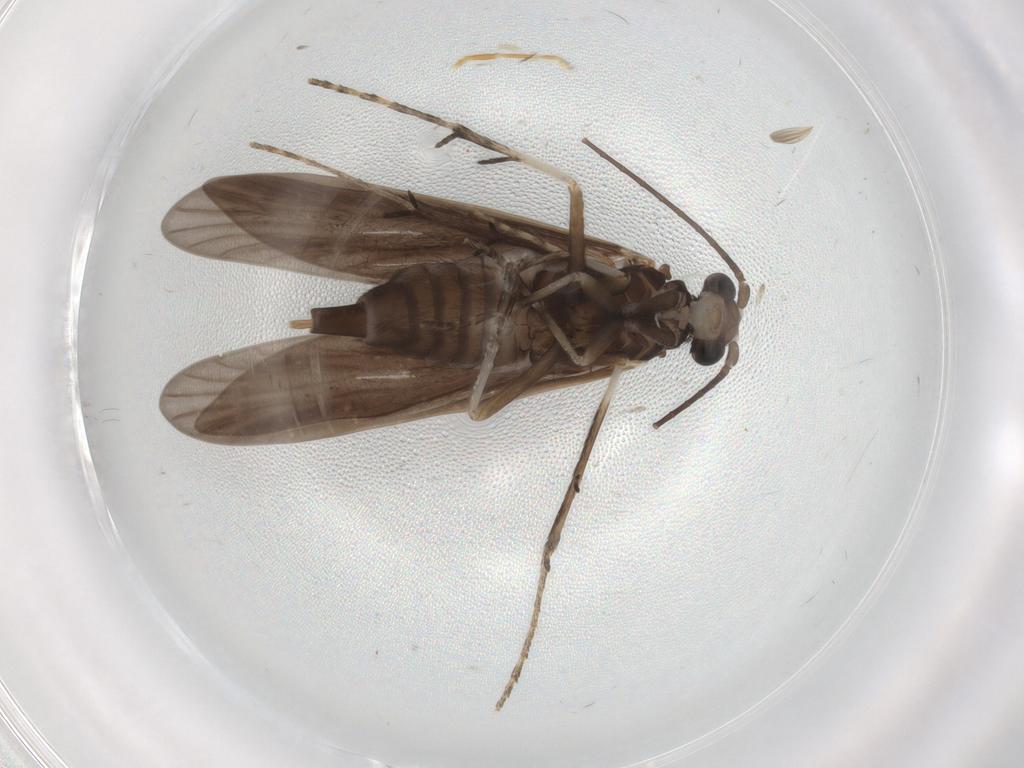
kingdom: Animalia
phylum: Arthropoda
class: Insecta
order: Trichoptera
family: Xiphocentronidae
